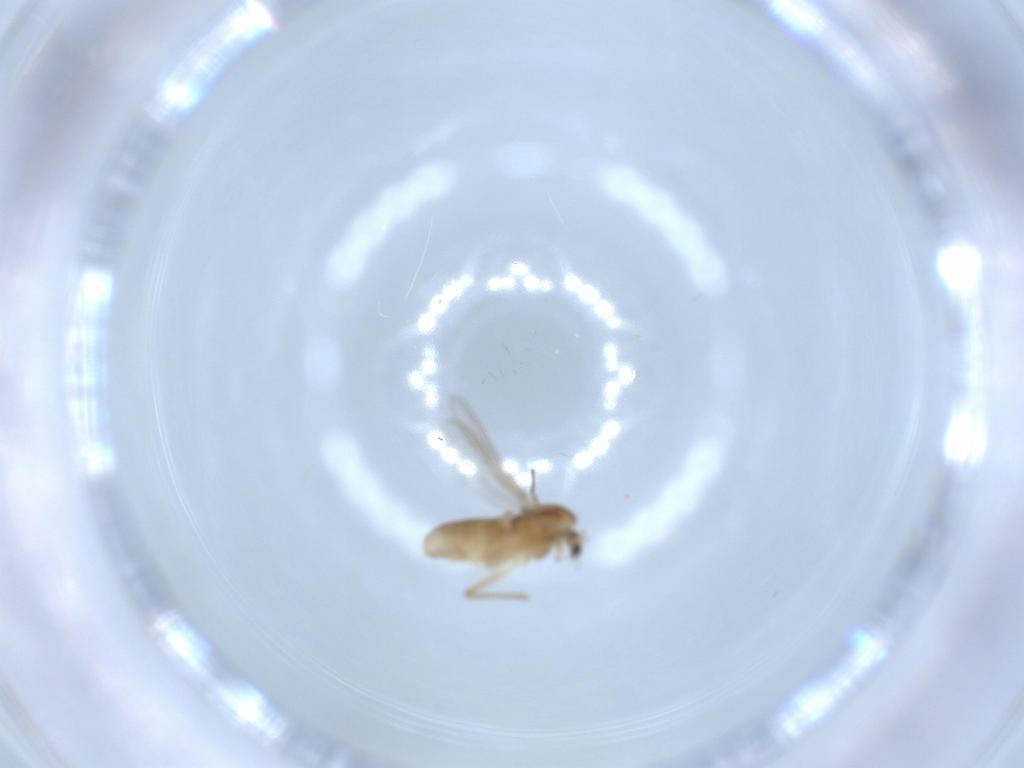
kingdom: Animalia
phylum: Arthropoda
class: Insecta
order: Diptera
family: Chironomidae
